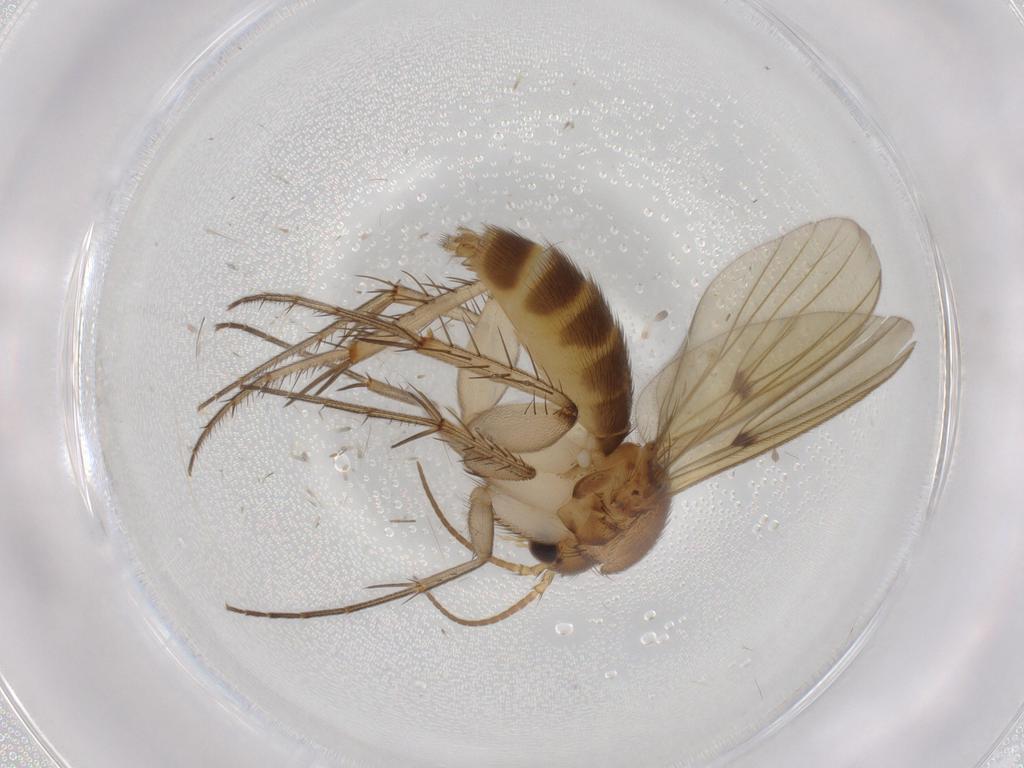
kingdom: Animalia
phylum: Arthropoda
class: Insecta
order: Diptera
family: Mycetophilidae
